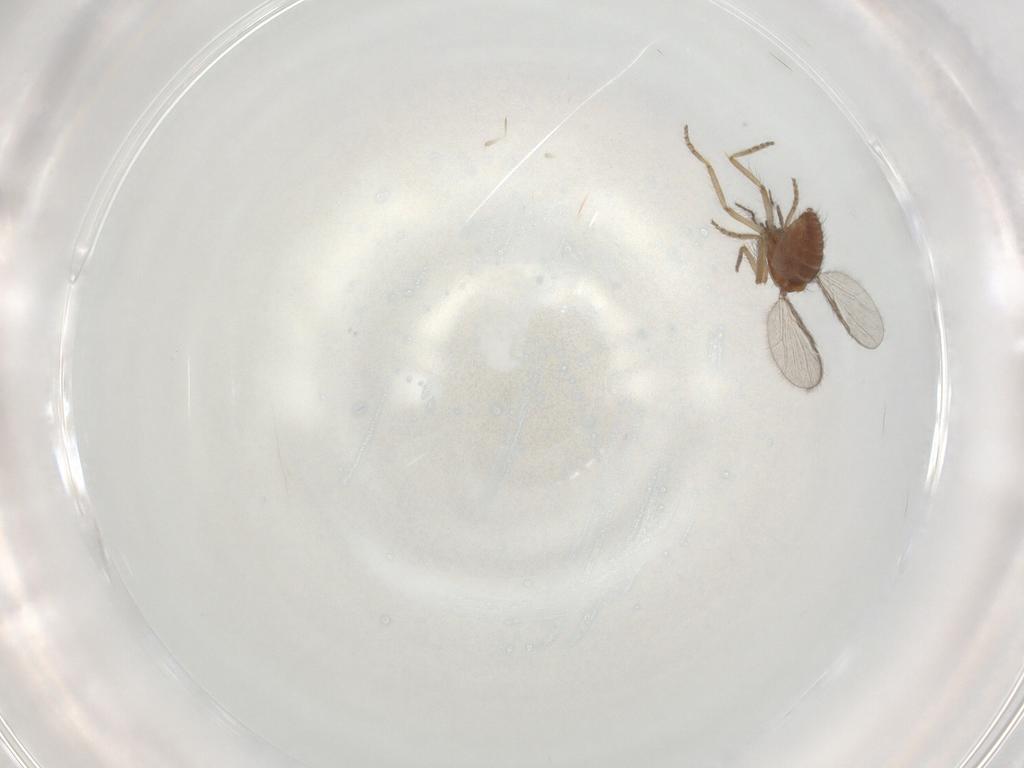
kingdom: Animalia
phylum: Arthropoda
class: Insecta
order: Diptera
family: Ceratopogonidae
